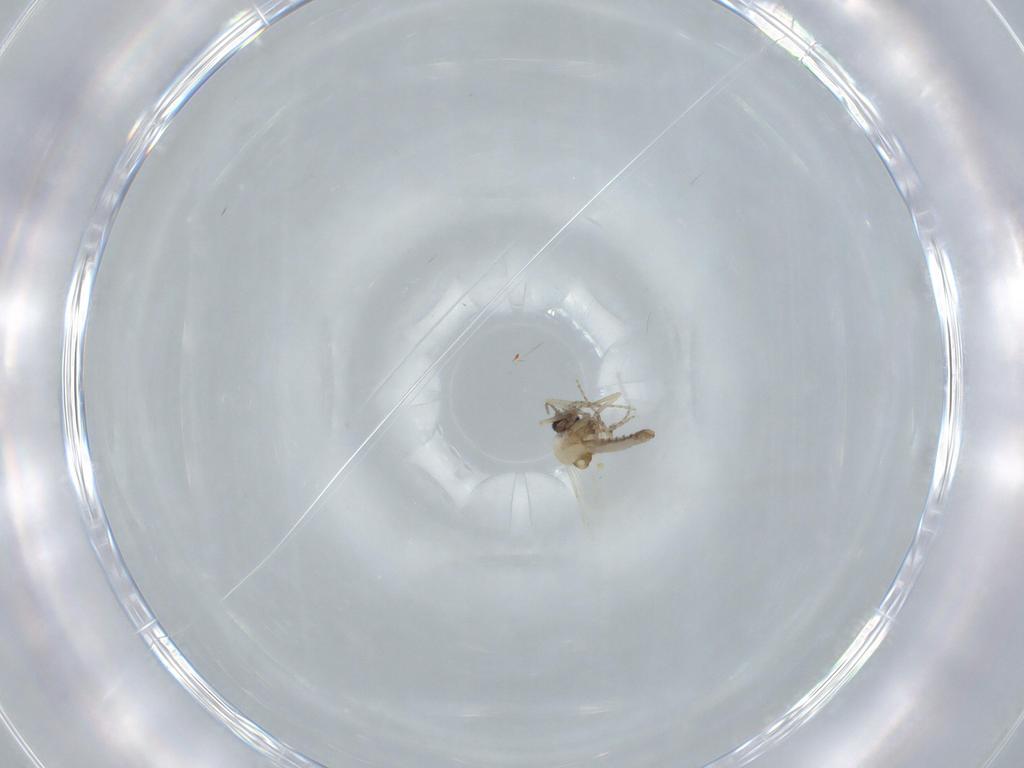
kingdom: Animalia
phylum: Arthropoda
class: Insecta
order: Diptera
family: Ceratopogonidae
